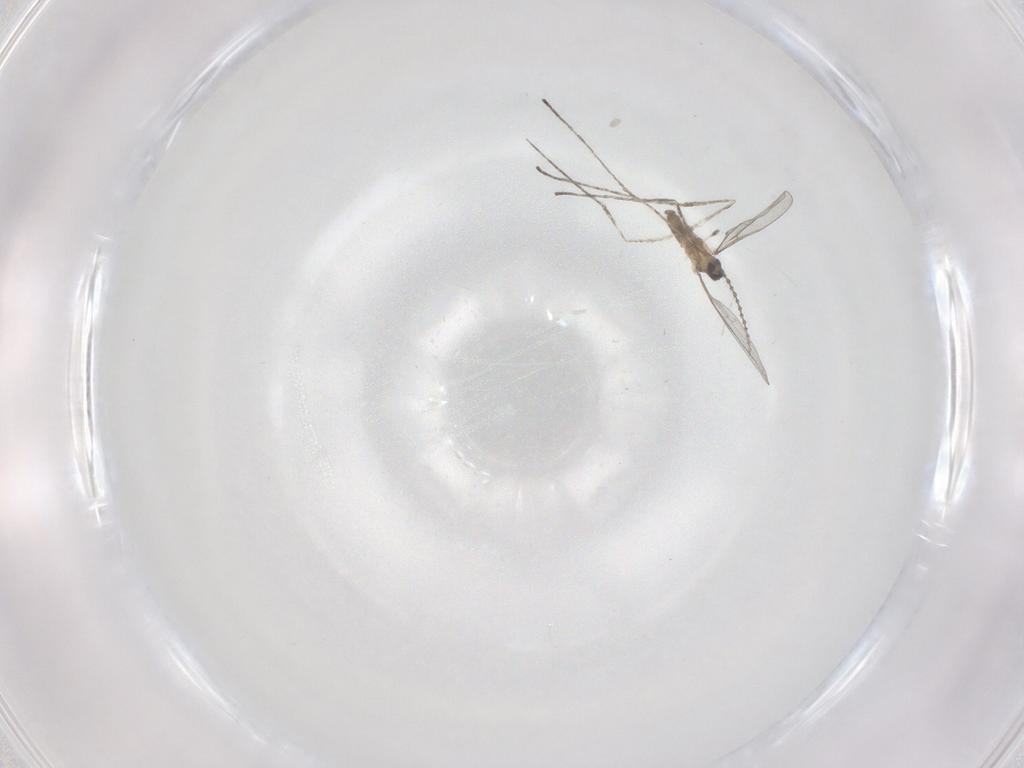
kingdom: Animalia
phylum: Arthropoda
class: Insecta
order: Diptera
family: Cecidomyiidae
